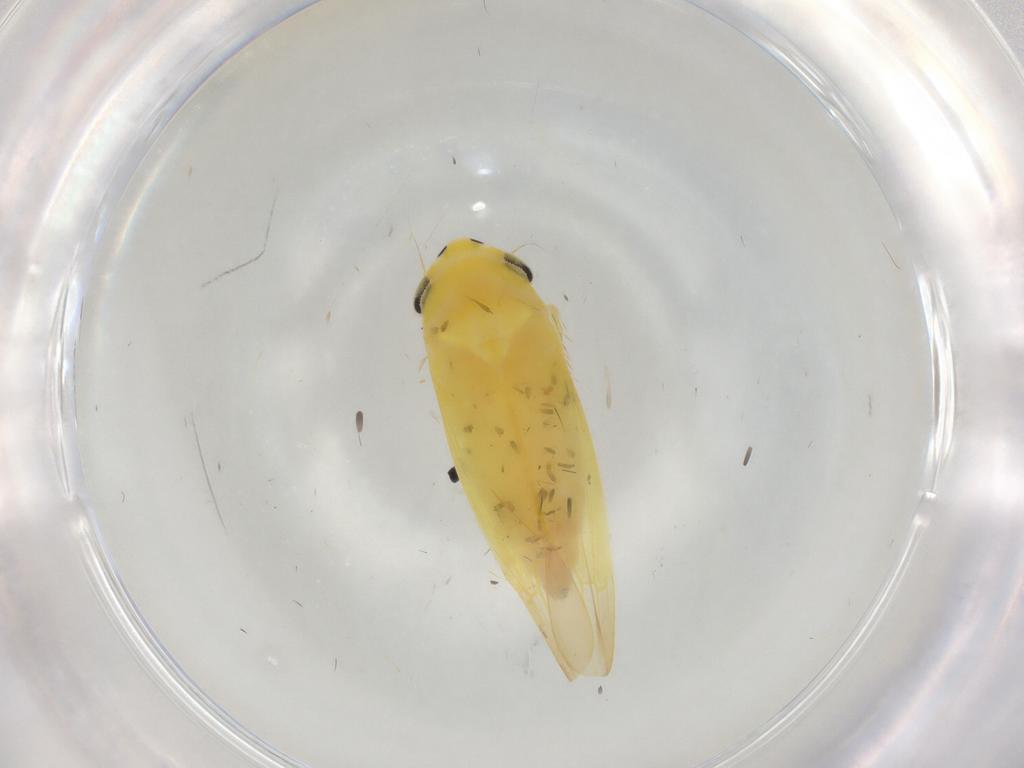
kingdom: Animalia
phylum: Arthropoda
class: Insecta
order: Hemiptera
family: Cicadellidae
